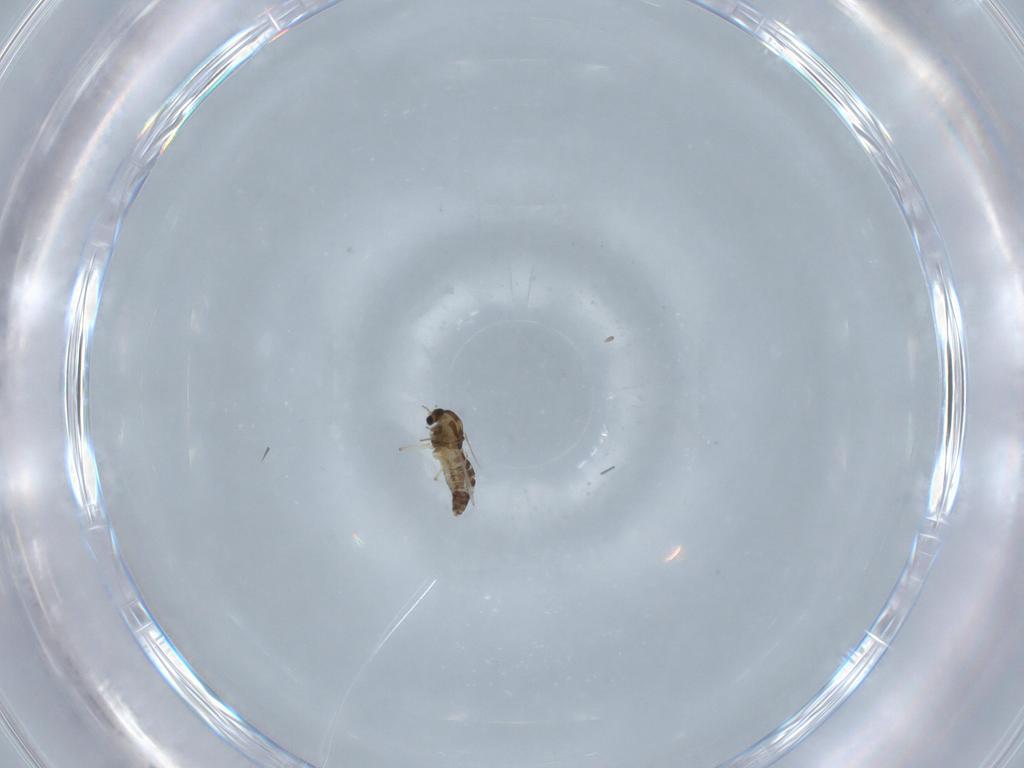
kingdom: Animalia
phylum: Arthropoda
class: Insecta
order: Diptera
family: Chironomidae
